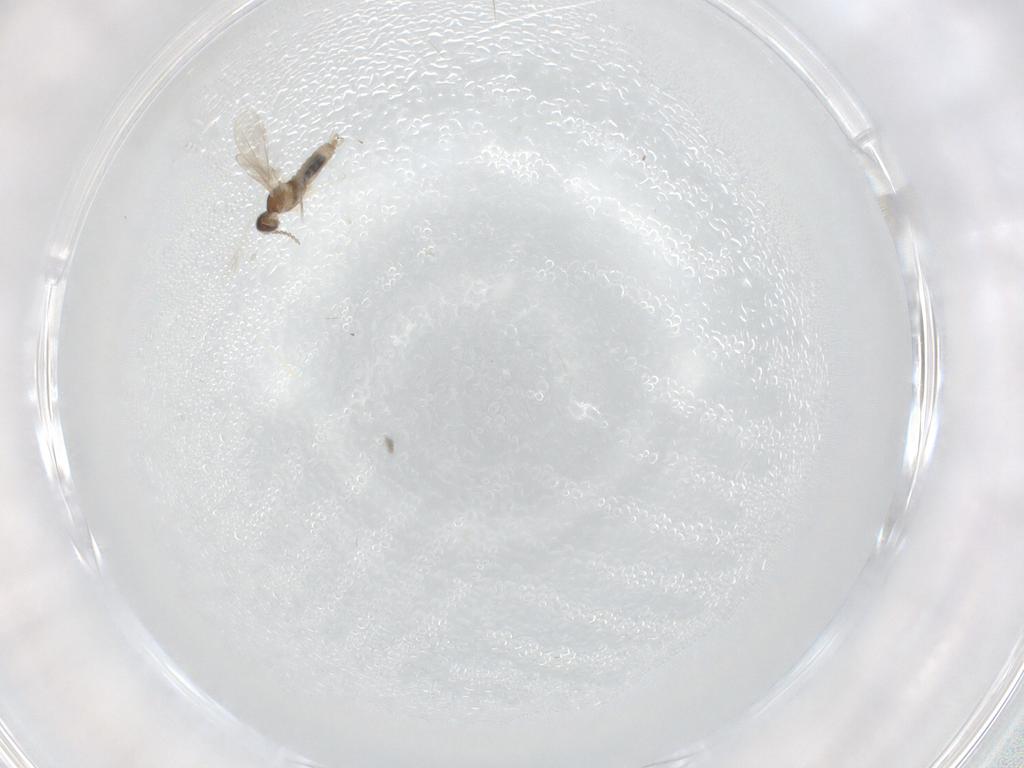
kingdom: Animalia
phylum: Arthropoda
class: Insecta
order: Diptera
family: Cecidomyiidae
